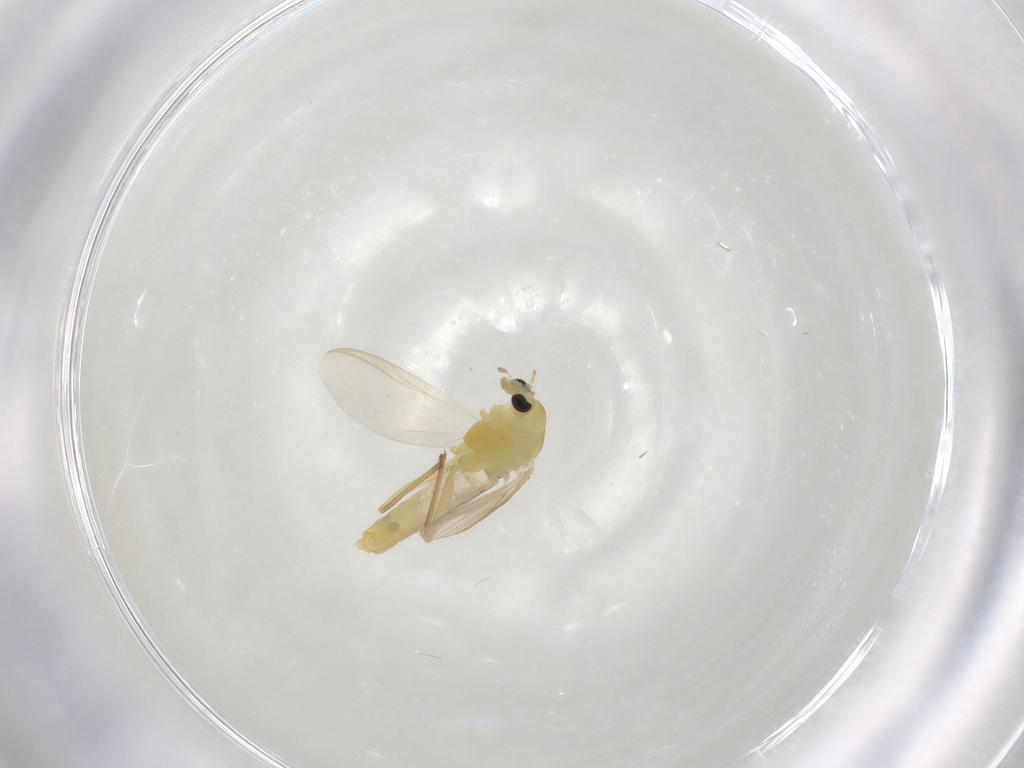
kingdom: Animalia
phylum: Arthropoda
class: Insecta
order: Diptera
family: Chironomidae
